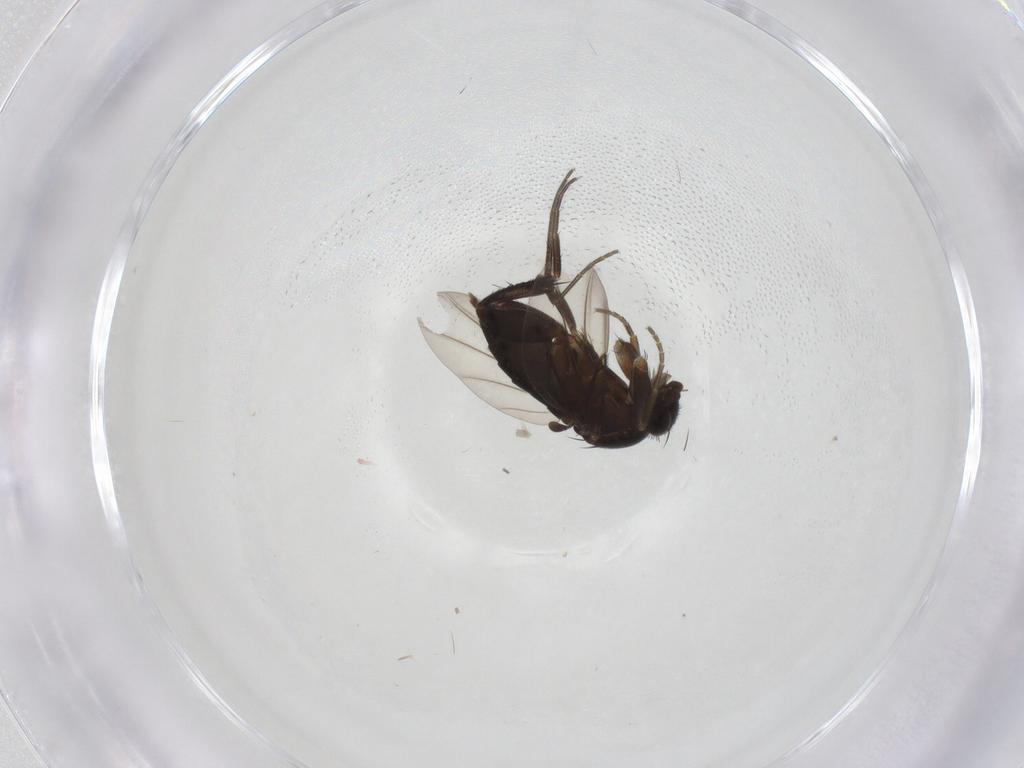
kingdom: Animalia
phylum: Arthropoda
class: Insecta
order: Diptera
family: Phoridae
